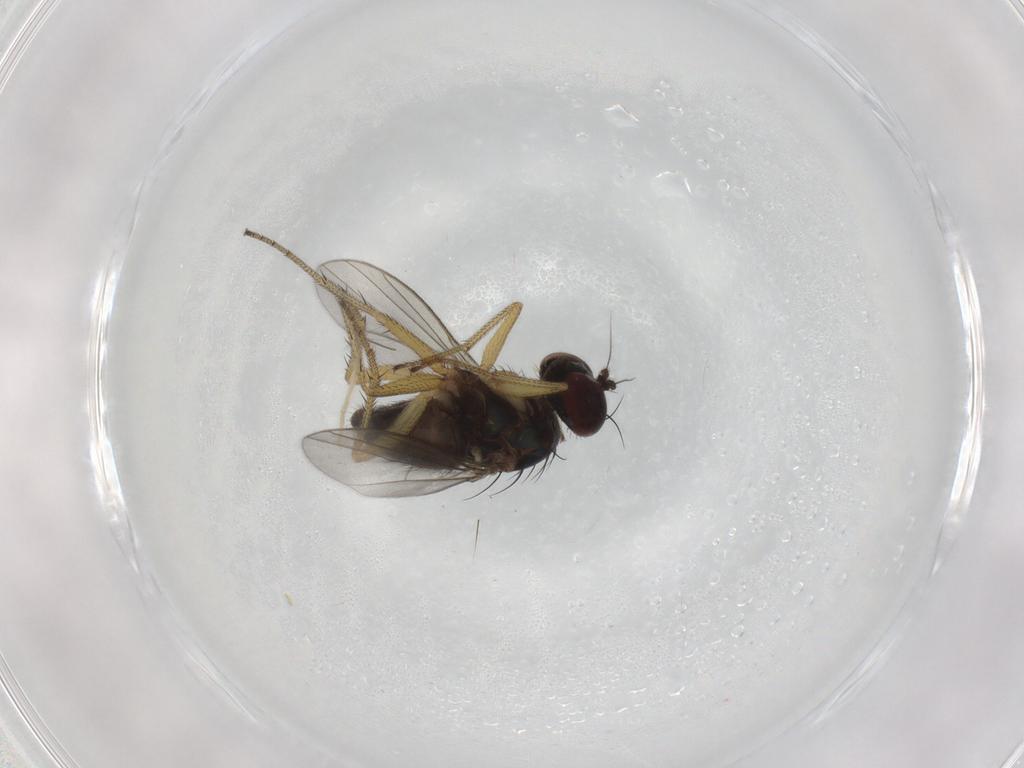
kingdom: Animalia
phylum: Arthropoda
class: Insecta
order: Diptera
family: Dolichopodidae
